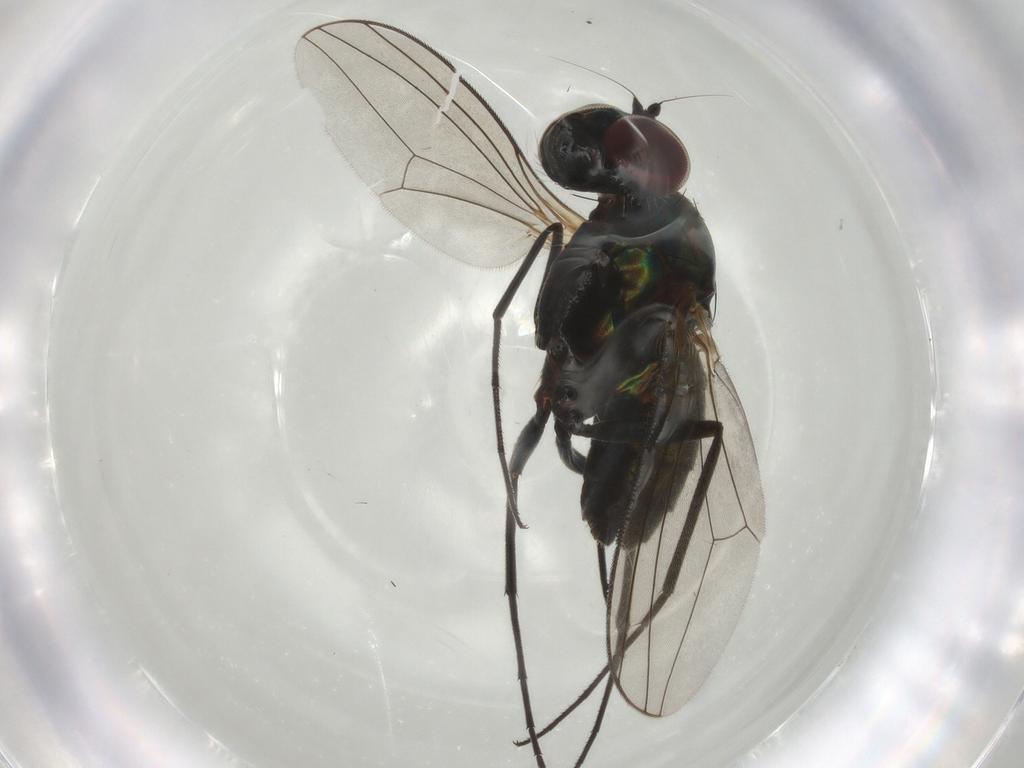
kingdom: Animalia
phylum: Arthropoda
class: Insecta
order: Diptera
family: Dolichopodidae
